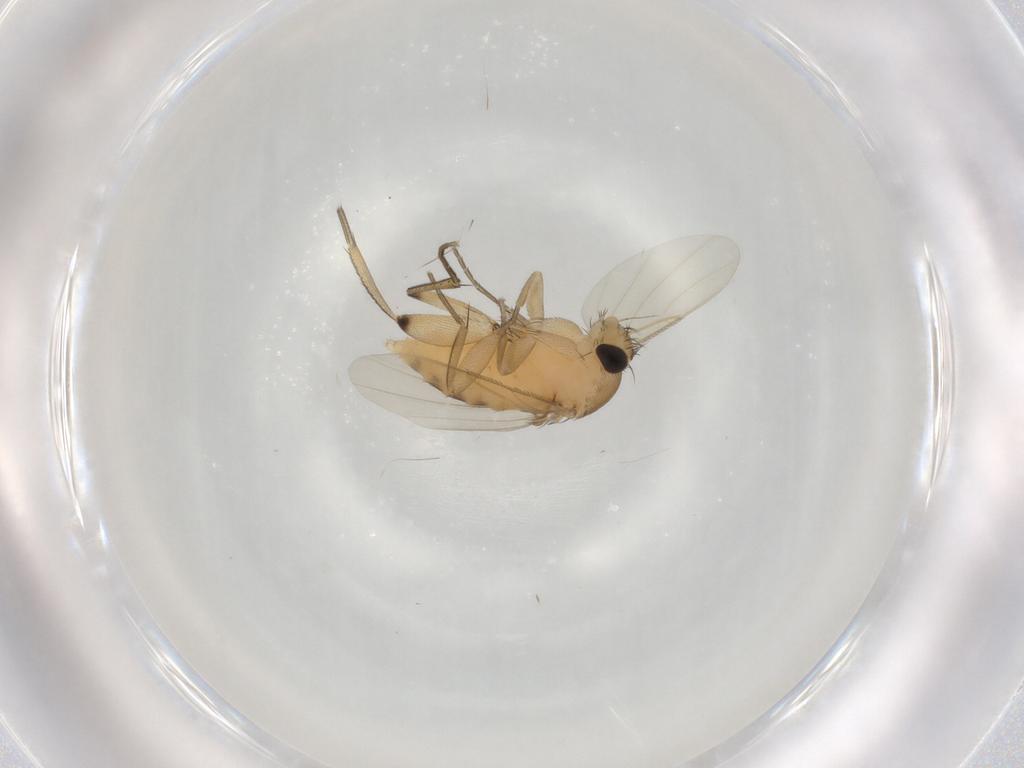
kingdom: Animalia
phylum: Arthropoda
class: Insecta
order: Diptera
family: Phoridae
